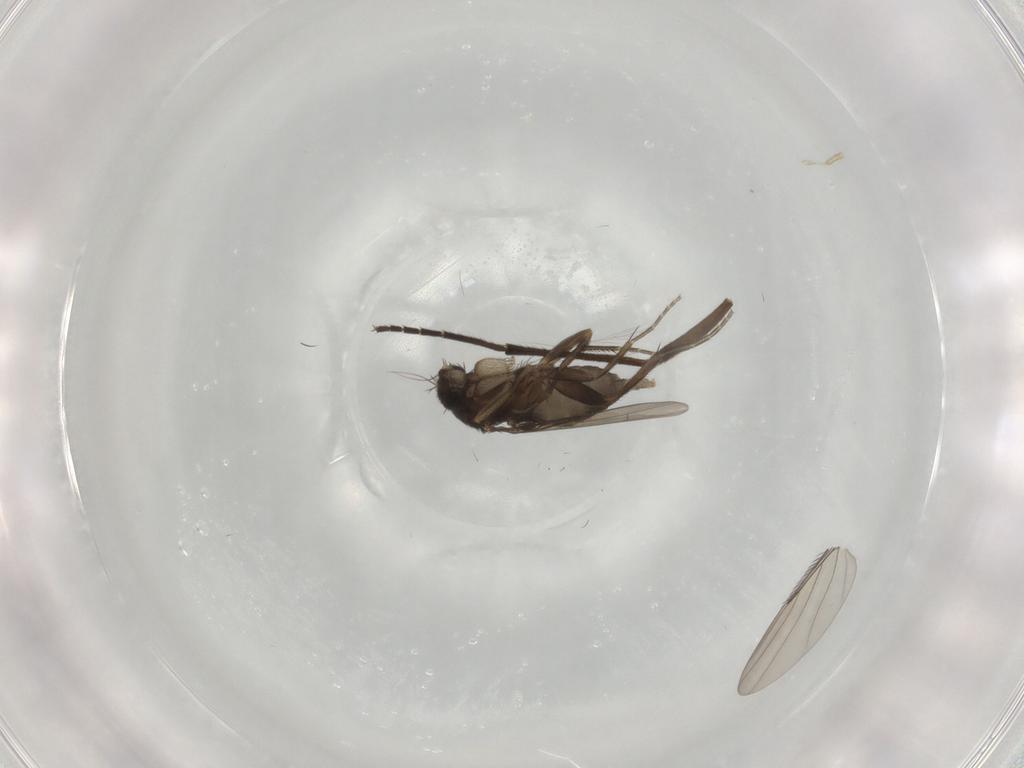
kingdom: Animalia
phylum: Arthropoda
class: Insecta
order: Diptera
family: Phoridae
